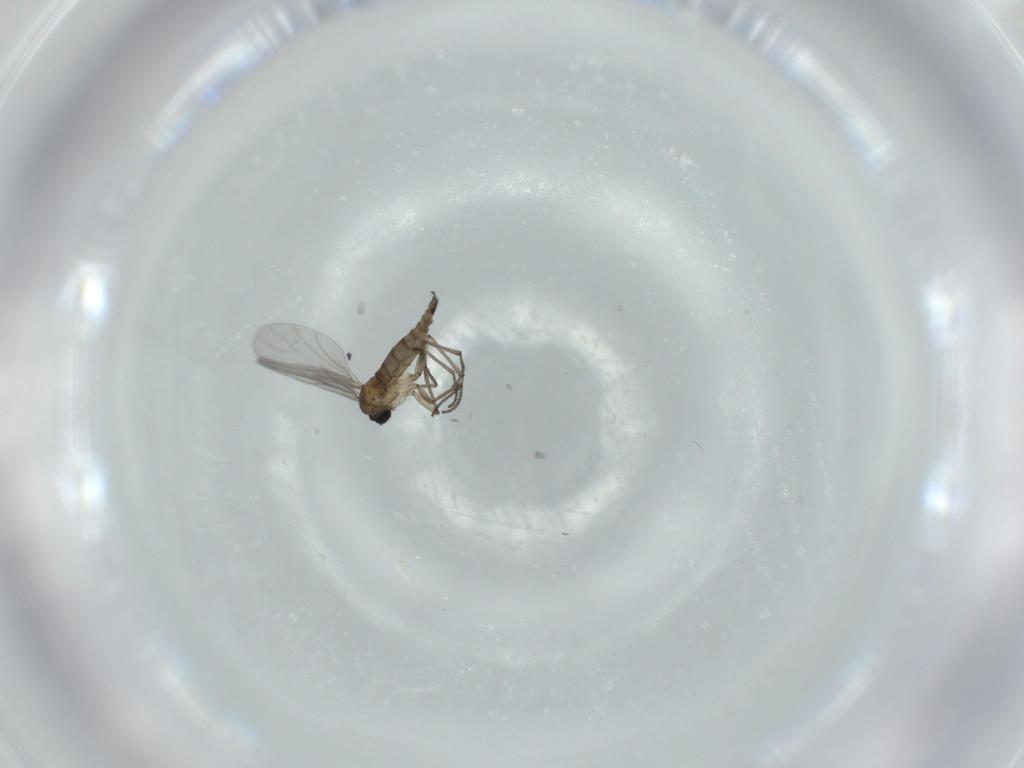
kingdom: Animalia
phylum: Arthropoda
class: Insecta
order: Diptera
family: Sciaridae
